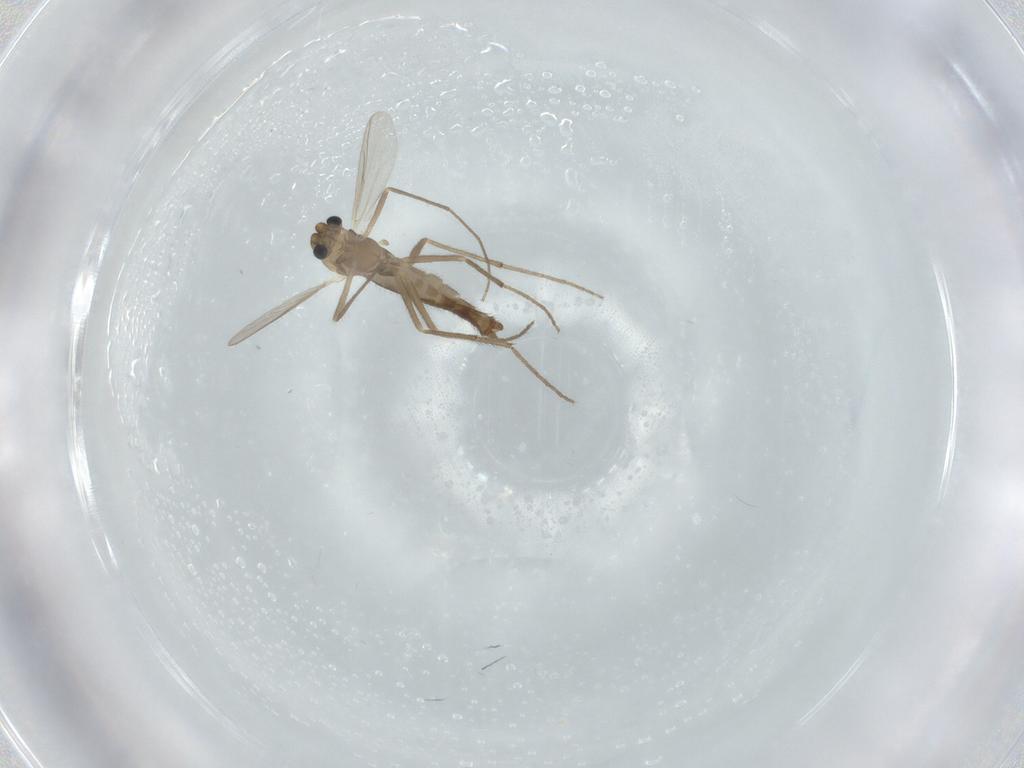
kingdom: Animalia
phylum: Arthropoda
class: Insecta
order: Diptera
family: Chironomidae
